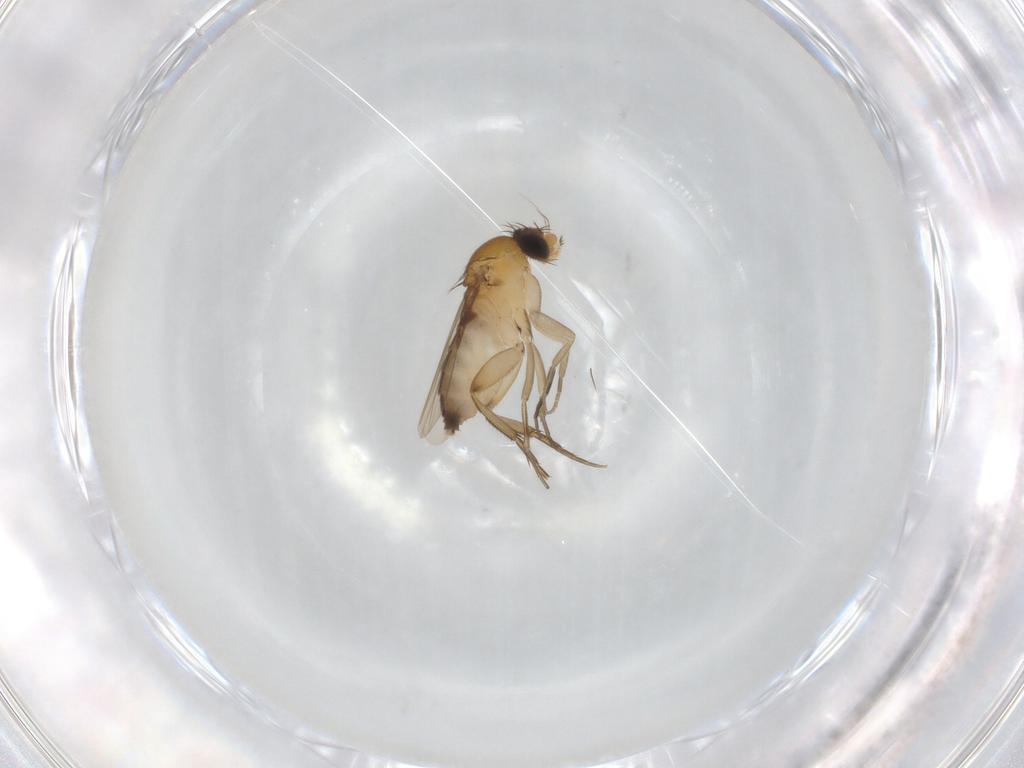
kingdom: Animalia
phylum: Arthropoda
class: Insecta
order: Diptera
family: Phoridae
